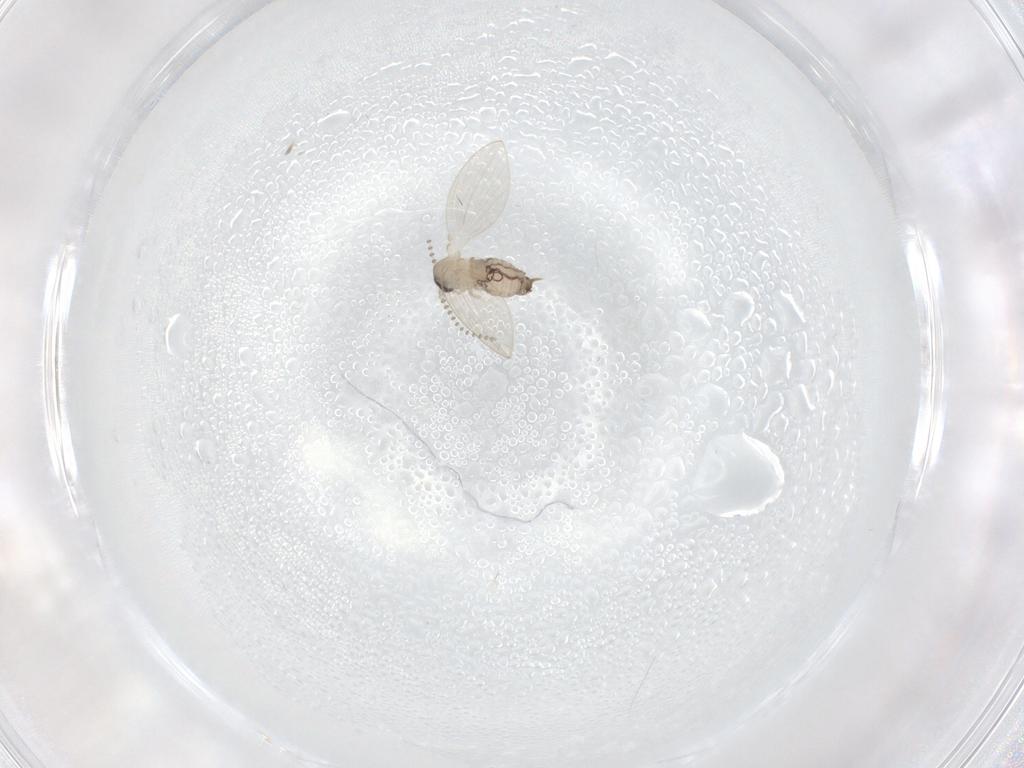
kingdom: Animalia
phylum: Arthropoda
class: Insecta
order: Diptera
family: Psychodidae
